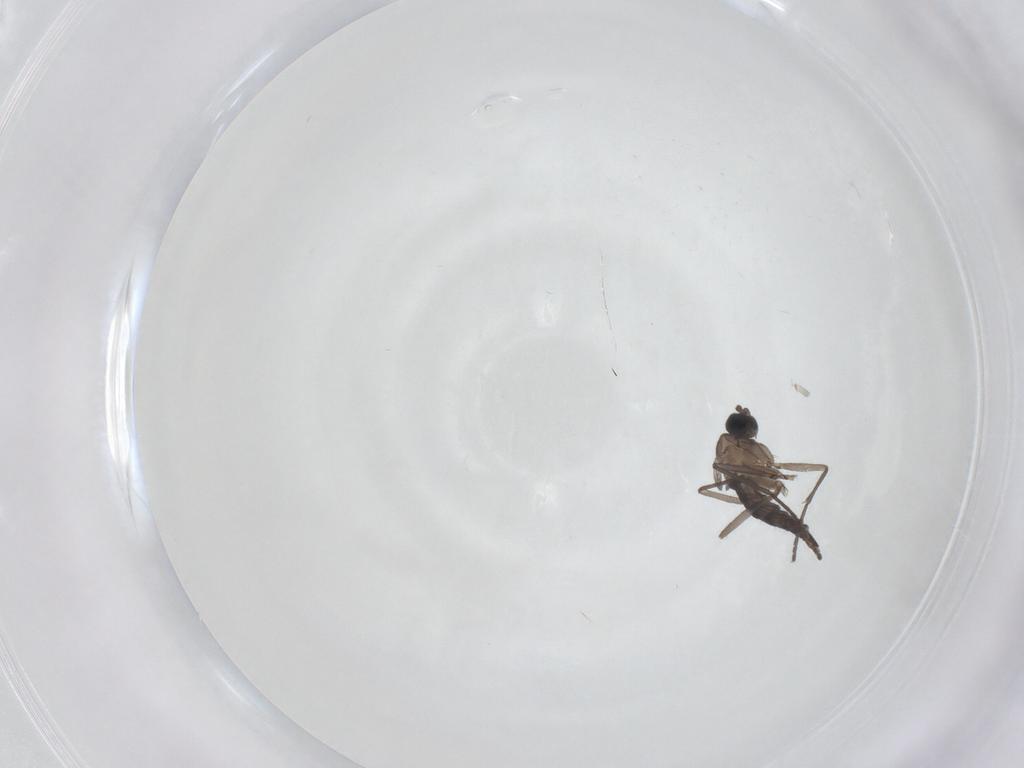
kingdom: Animalia
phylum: Arthropoda
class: Insecta
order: Diptera
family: Sciaridae
